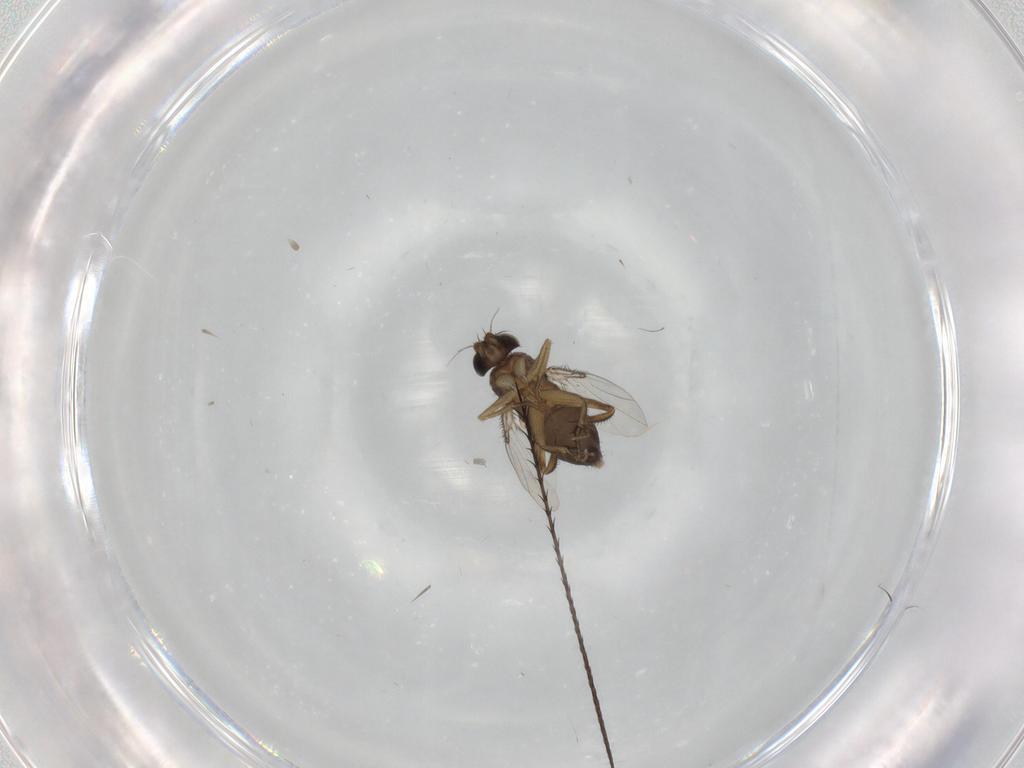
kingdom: Animalia
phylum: Arthropoda
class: Insecta
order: Diptera
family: Phoridae
